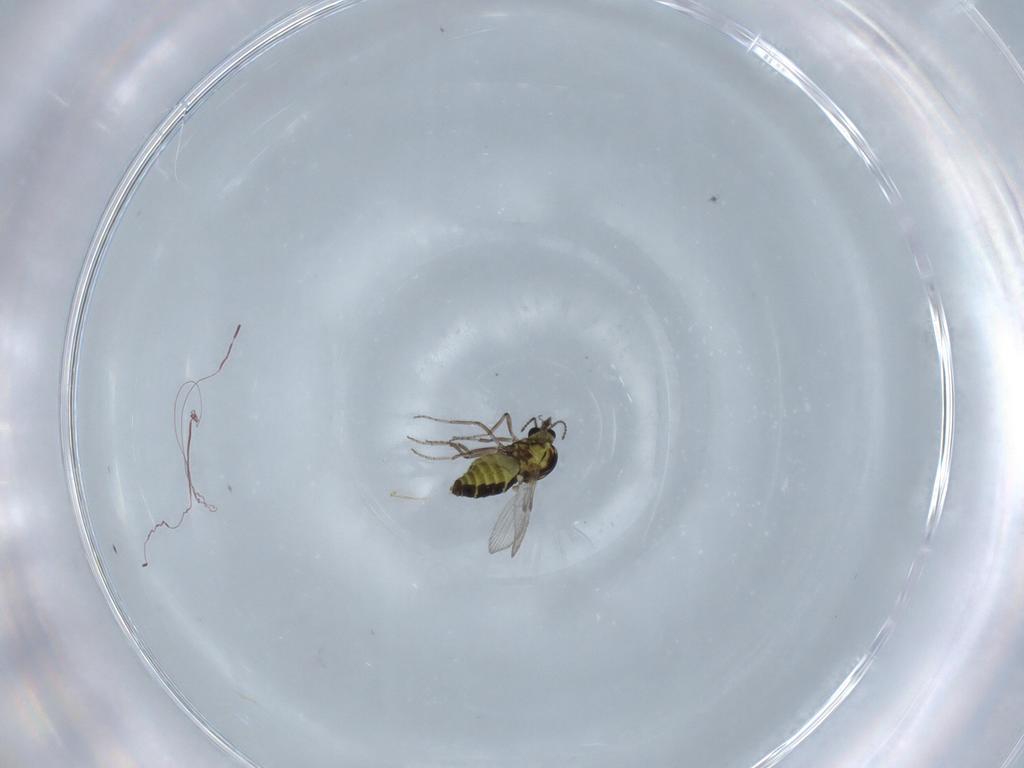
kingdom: Animalia
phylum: Arthropoda
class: Insecta
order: Diptera
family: Ceratopogonidae
